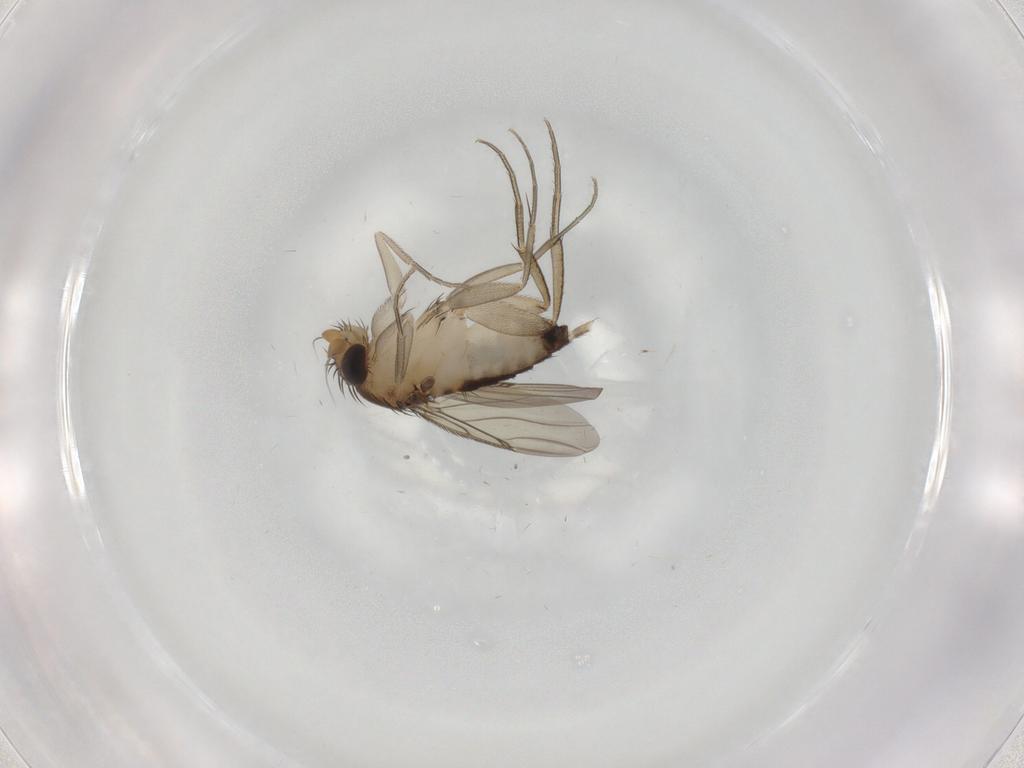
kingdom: Animalia
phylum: Arthropoda
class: Insecta
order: Diptera
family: Phoridae
